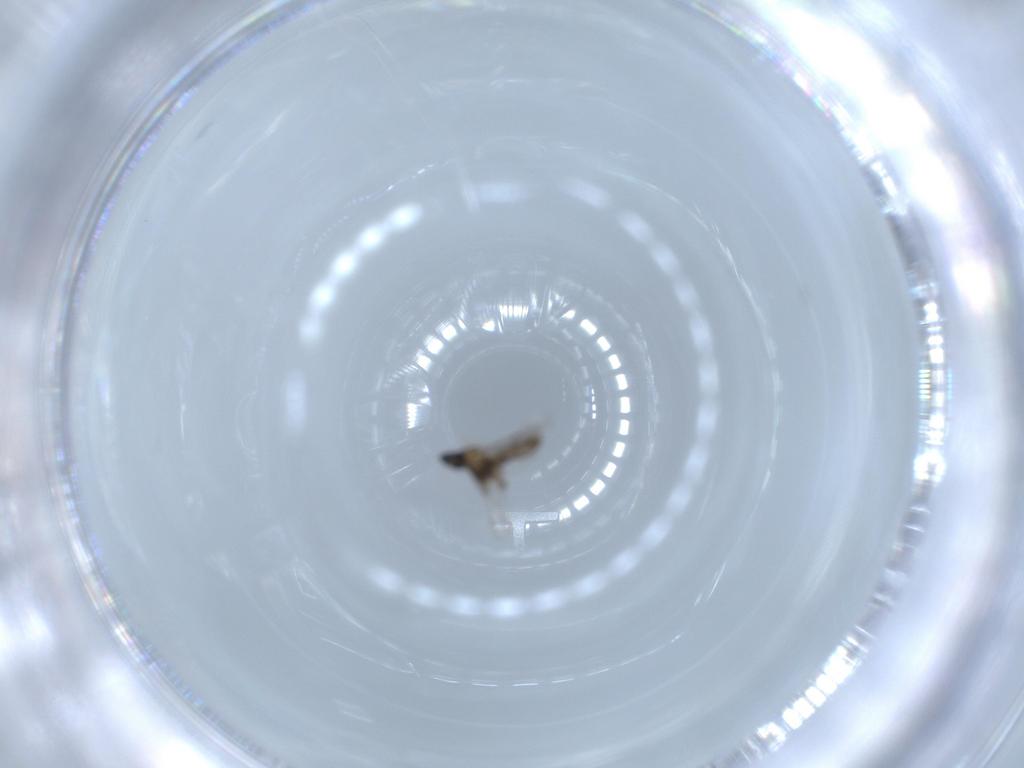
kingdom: Animalia
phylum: Arthropoda
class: Insecta
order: Diptera
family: Cecidomyiidae
